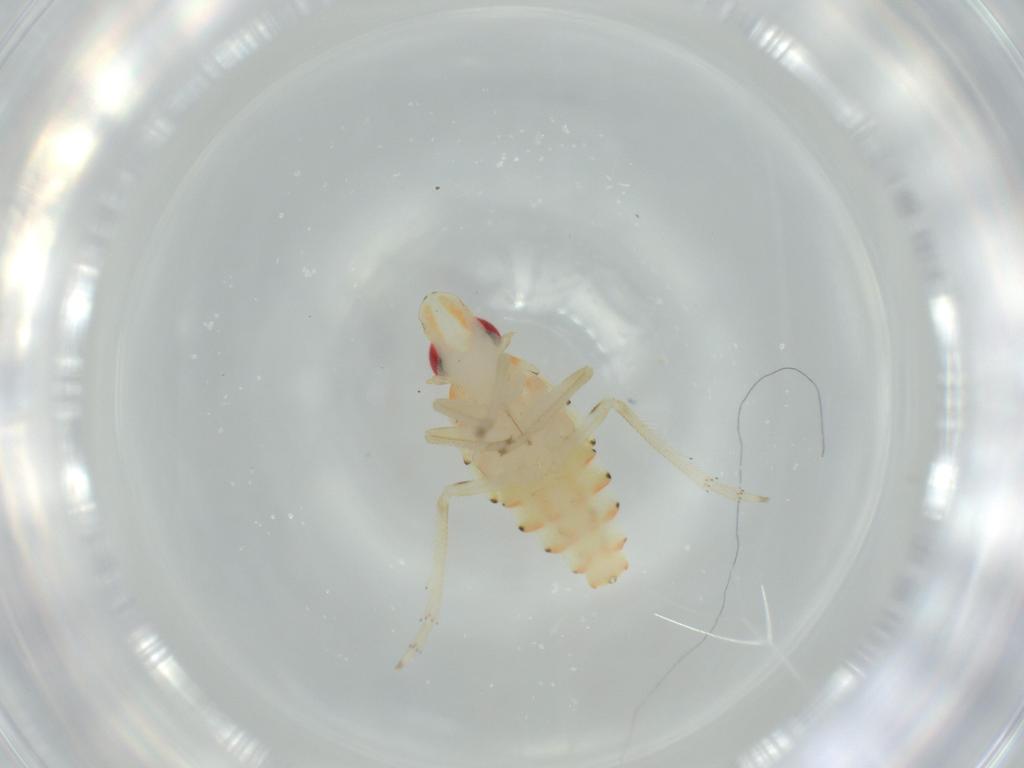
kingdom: Animalia
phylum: Arthropoda
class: Insecta
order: Hemiptera
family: Tropiduchidae
